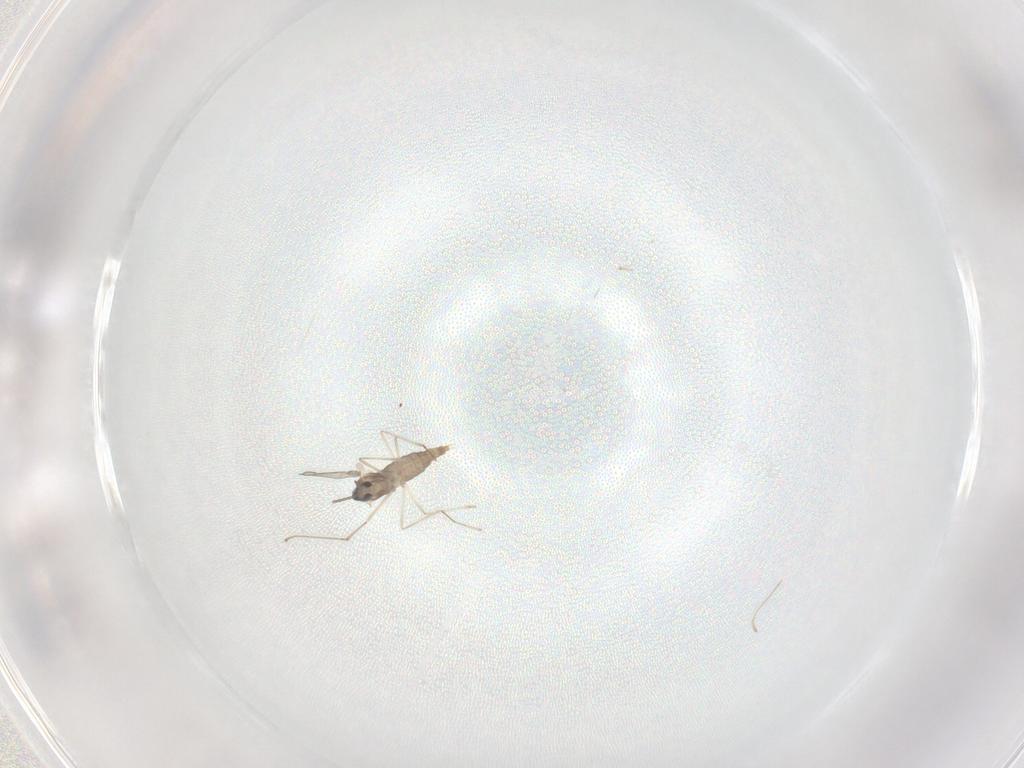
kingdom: Animalia
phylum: Arthropoda
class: Insecta
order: Diptera
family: Cecidomyiidae
